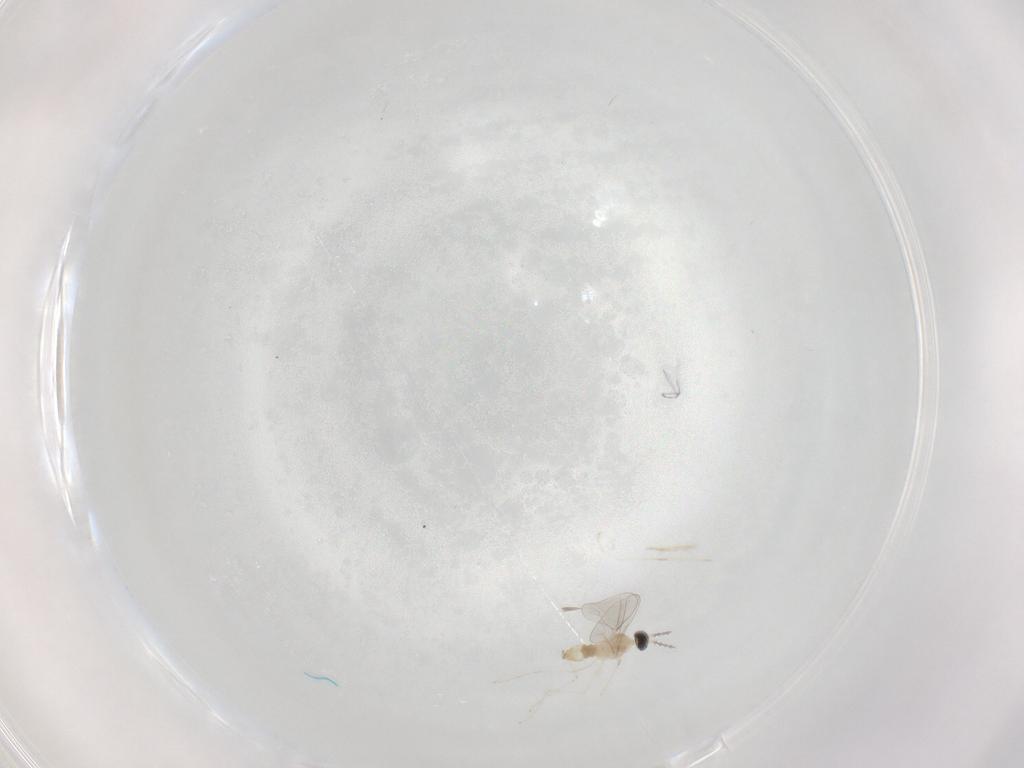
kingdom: Animalia
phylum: Arthropoda
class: Insecta
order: Diptera
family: Cecidomyiidae
